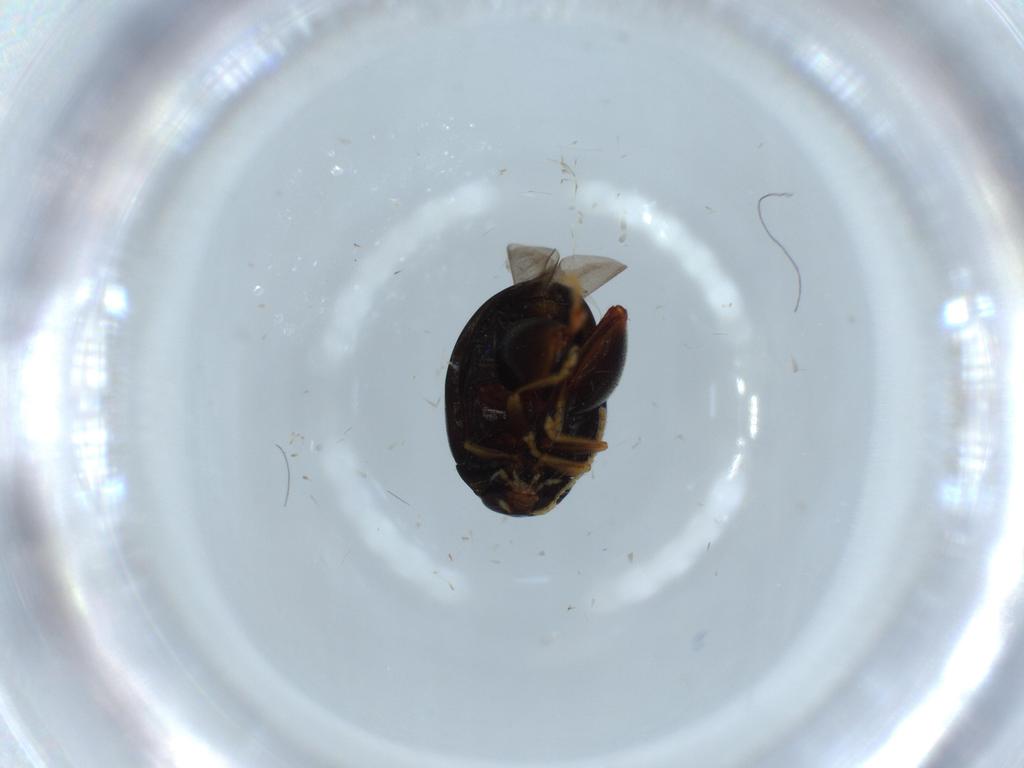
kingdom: Animalia
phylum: Arthropoda
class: Insecta
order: Coleoptera
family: Chrysomelidae
